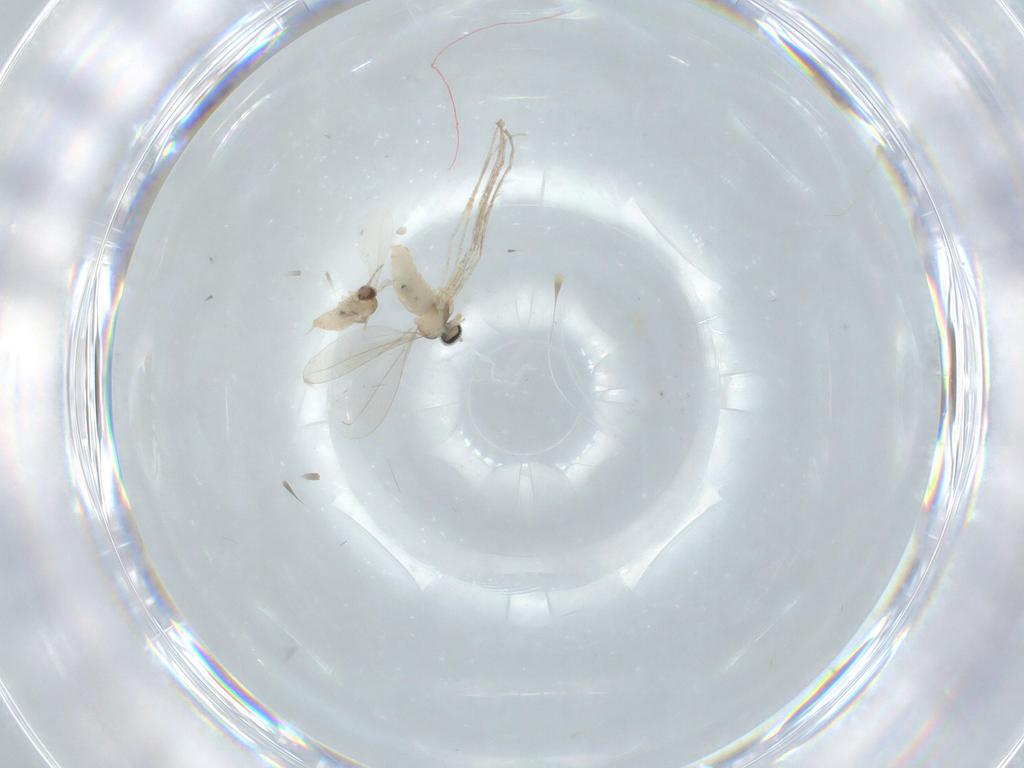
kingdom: Animalia
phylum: Arthropoda
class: Insecta
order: Diptera
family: Cecidomyiidae
